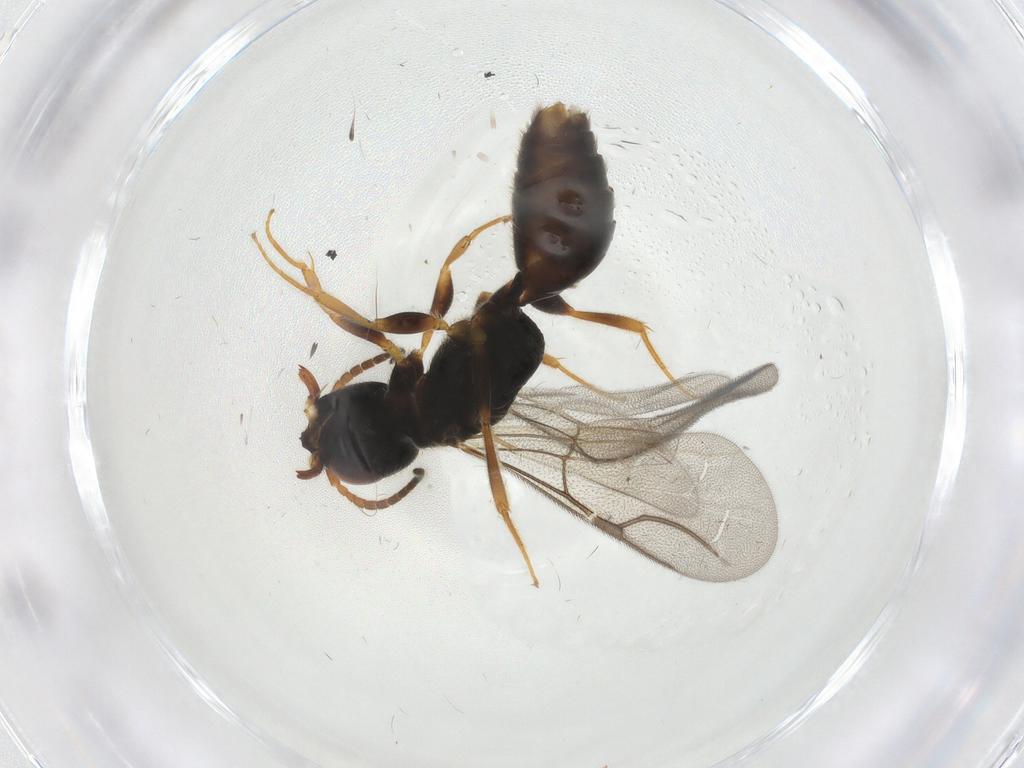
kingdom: Animalia
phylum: Arthropoda
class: Insecta
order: Hymenoptera
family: Bethylidae
